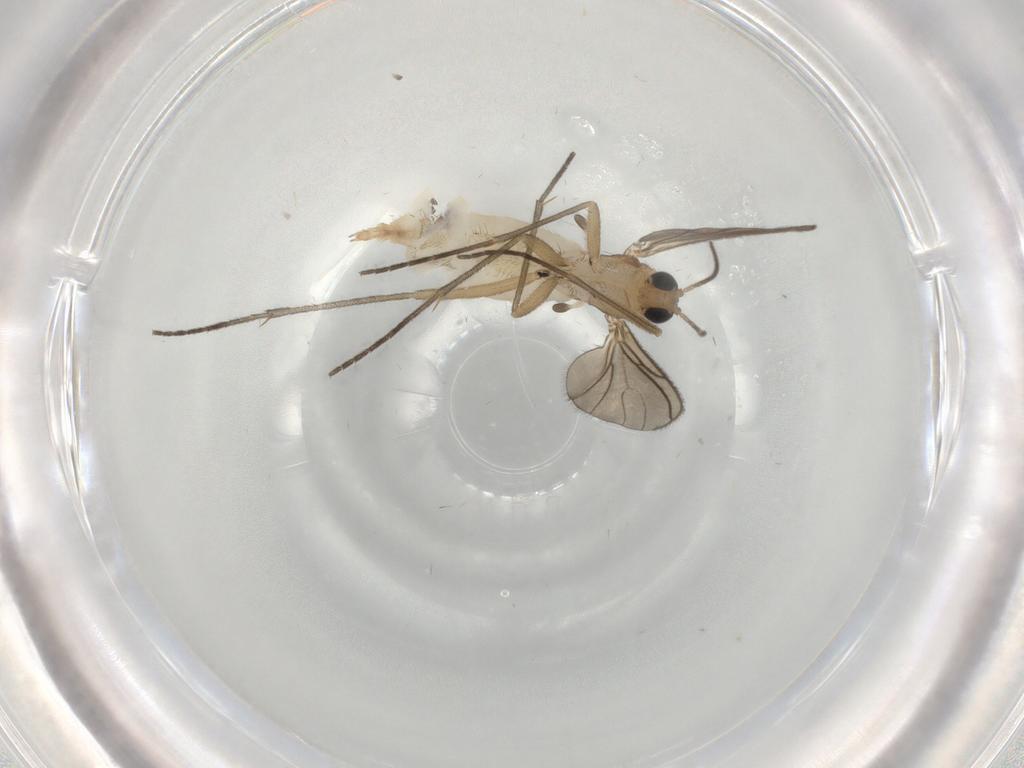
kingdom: Animalia
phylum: Arthropoda
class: Insecta
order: Diptera
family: Sciaridae
